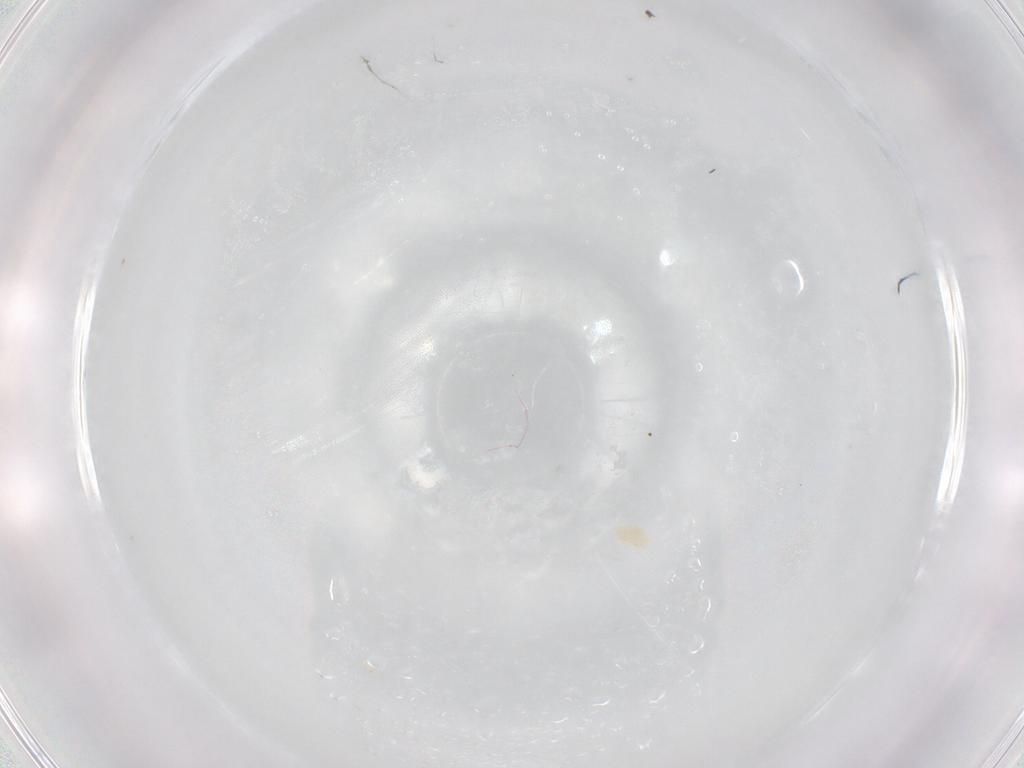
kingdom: Animalia
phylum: Arthropoda
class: Arachnida
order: Trombidiformes
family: Eupodidae
